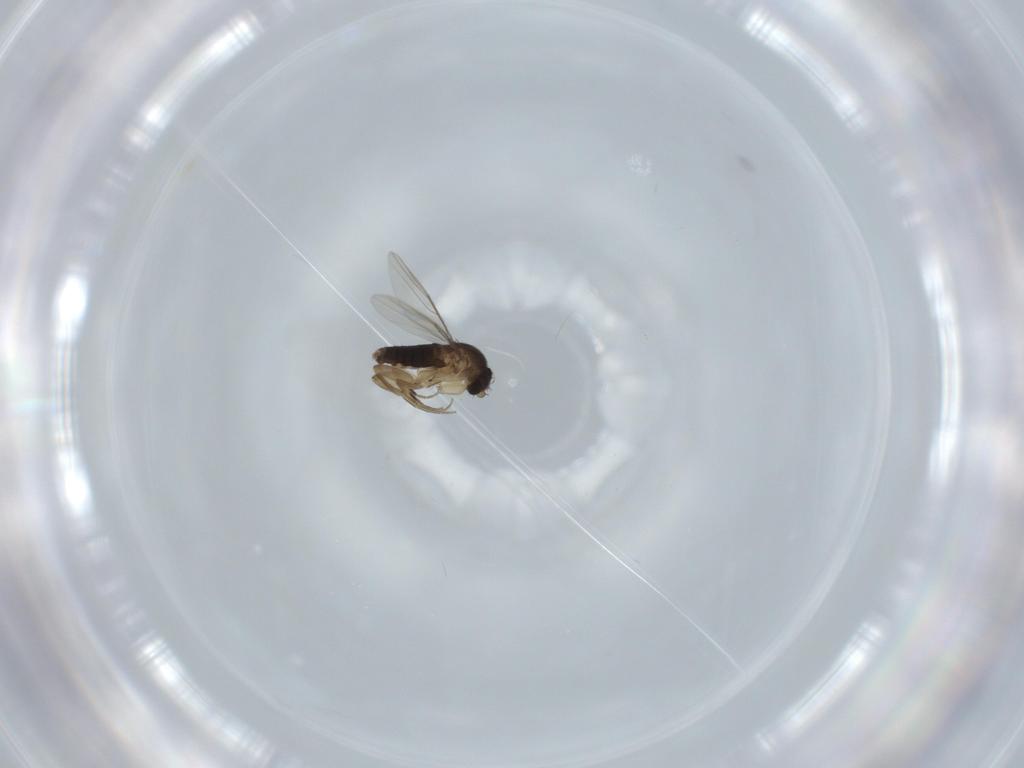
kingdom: Animalia
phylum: Arthropoda
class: Insecta
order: Diptera
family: Phoridae
